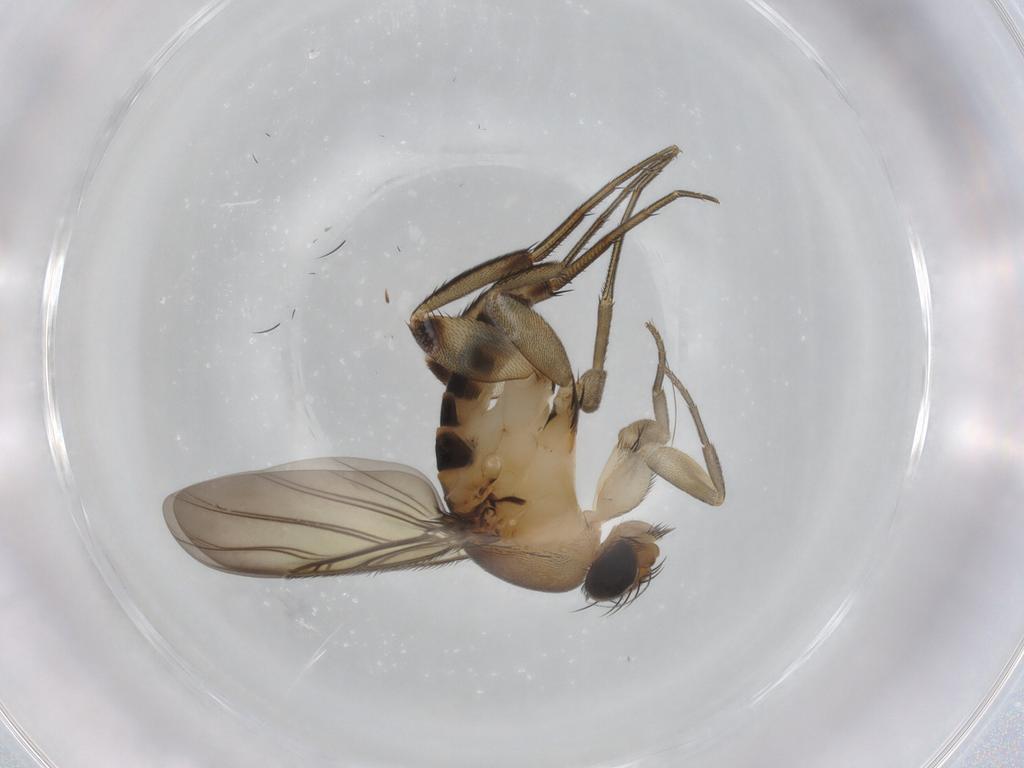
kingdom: Animalia
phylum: Arthropoda
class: Insecta
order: Diptera
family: Phoridae
